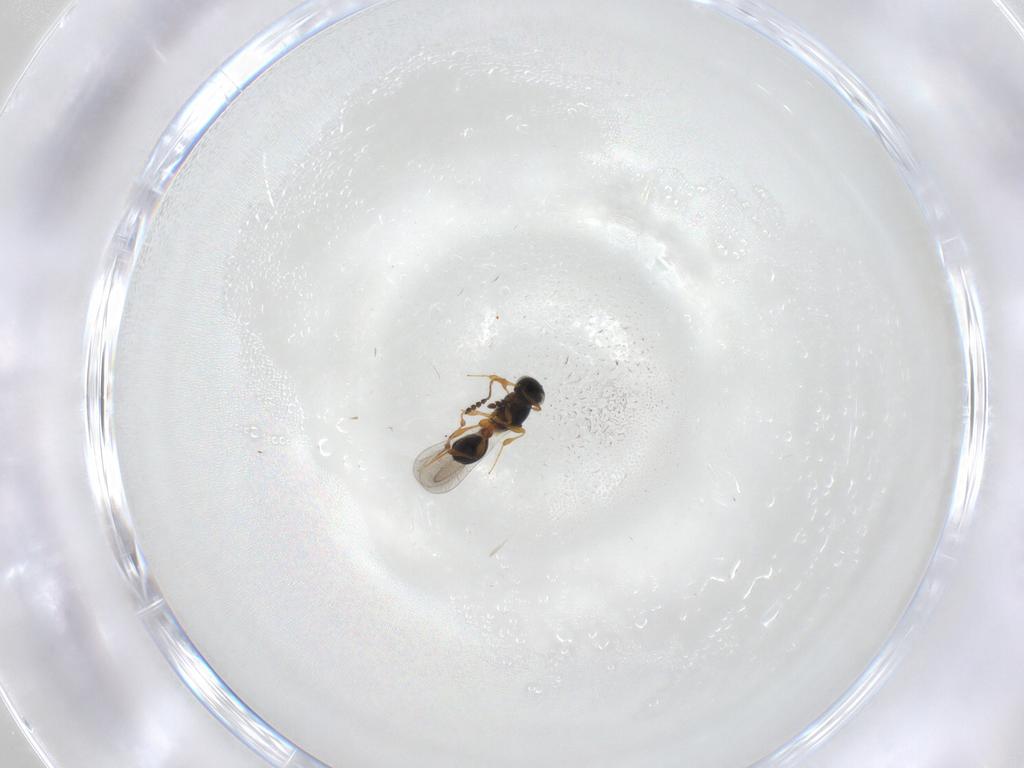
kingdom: Animalia
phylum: Arthropoda
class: Insecta
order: Hymenoptera
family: Platygastridae
